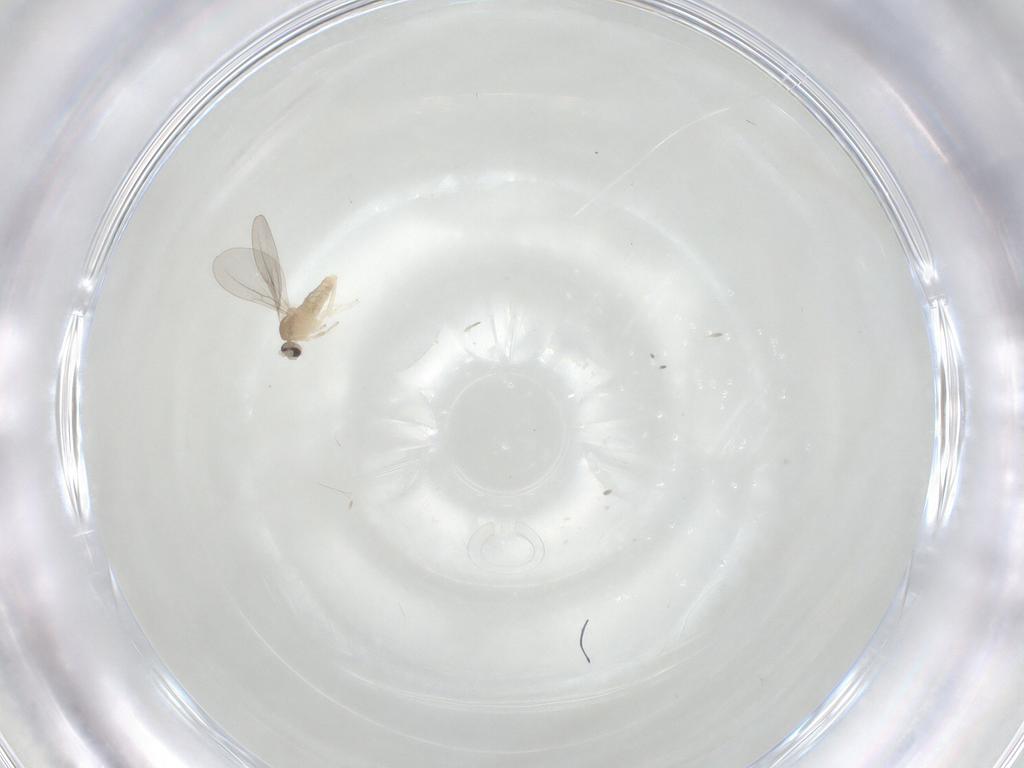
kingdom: Animalia
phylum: Arthropoda
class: Insecta
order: Diptera
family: Cecidomyiidae
